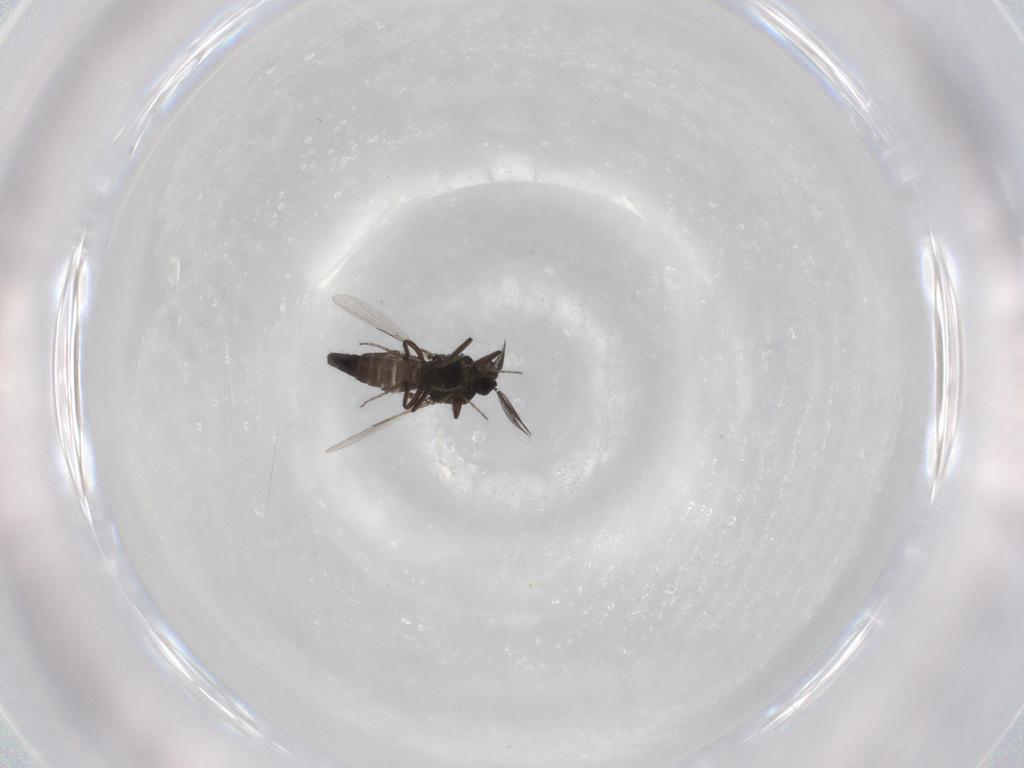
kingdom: Animalia
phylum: Arthropoda
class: Insecta
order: Diptera
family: Ceratopogonidae
